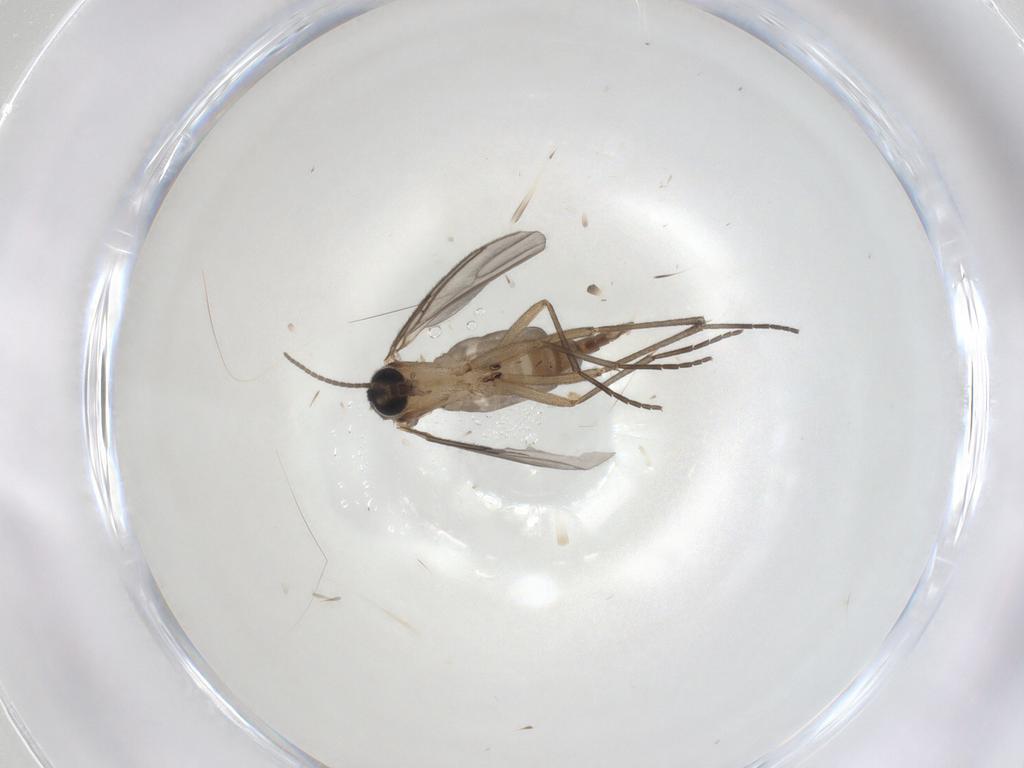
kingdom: Animalia
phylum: Arthropoda
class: Insecta
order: Diptera
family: Sciaridae
